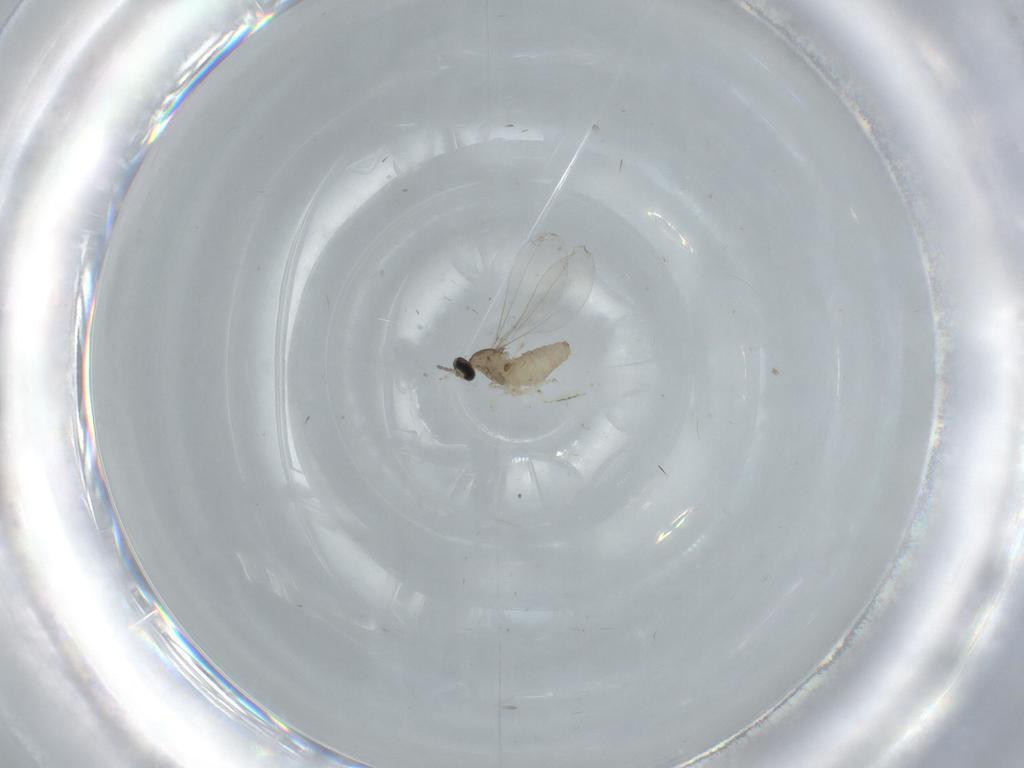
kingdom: Animalia
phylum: Arthropoda
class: Insecta
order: Diptera
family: Cecidomyiidae
